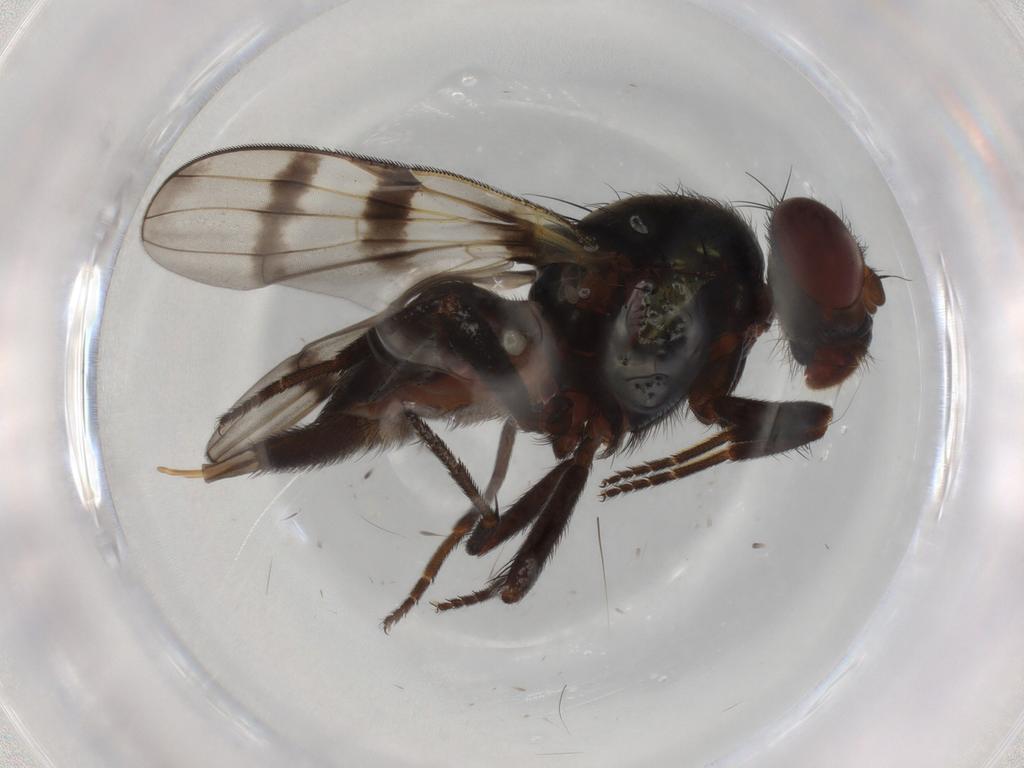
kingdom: Animalia
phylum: Arthropoda
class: Insecta
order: Diptera
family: Ulidiidae
